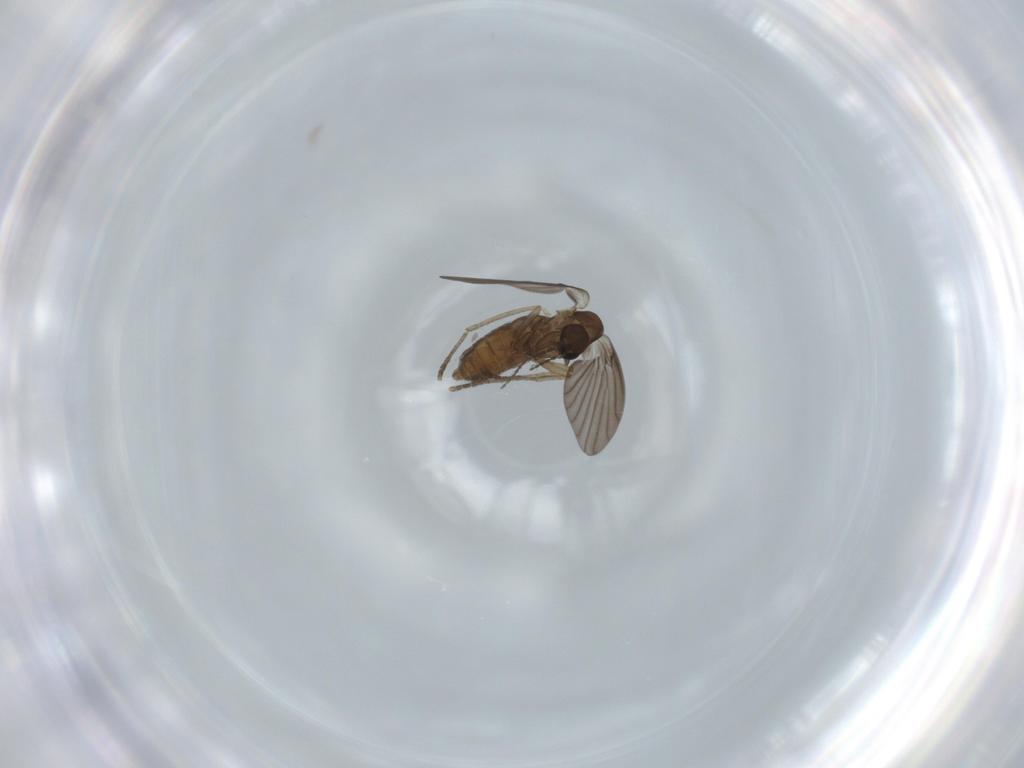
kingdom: Animalia
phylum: Arthropoda
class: Insecta
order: Diptera
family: Psychodidae
